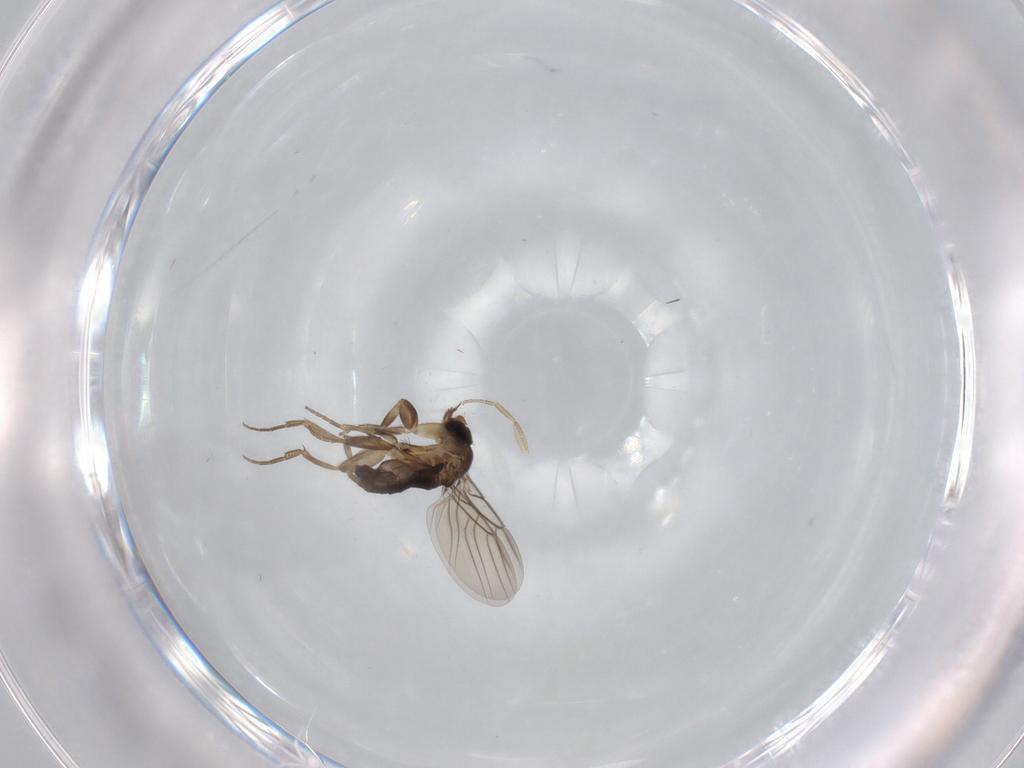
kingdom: Animalia
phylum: Arthropoda
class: Insecta
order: Diptera
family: Phoridae
